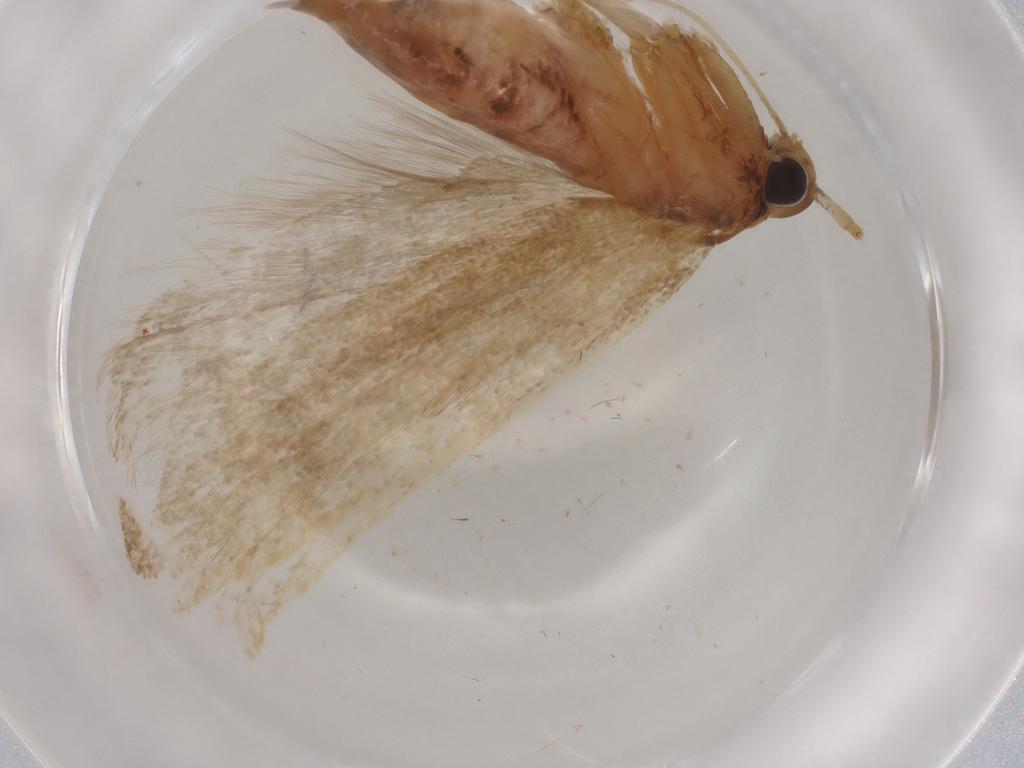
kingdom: Animalia
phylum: Arthropoda
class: Insecta
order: Lepidoptera
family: Lecithoceridae
